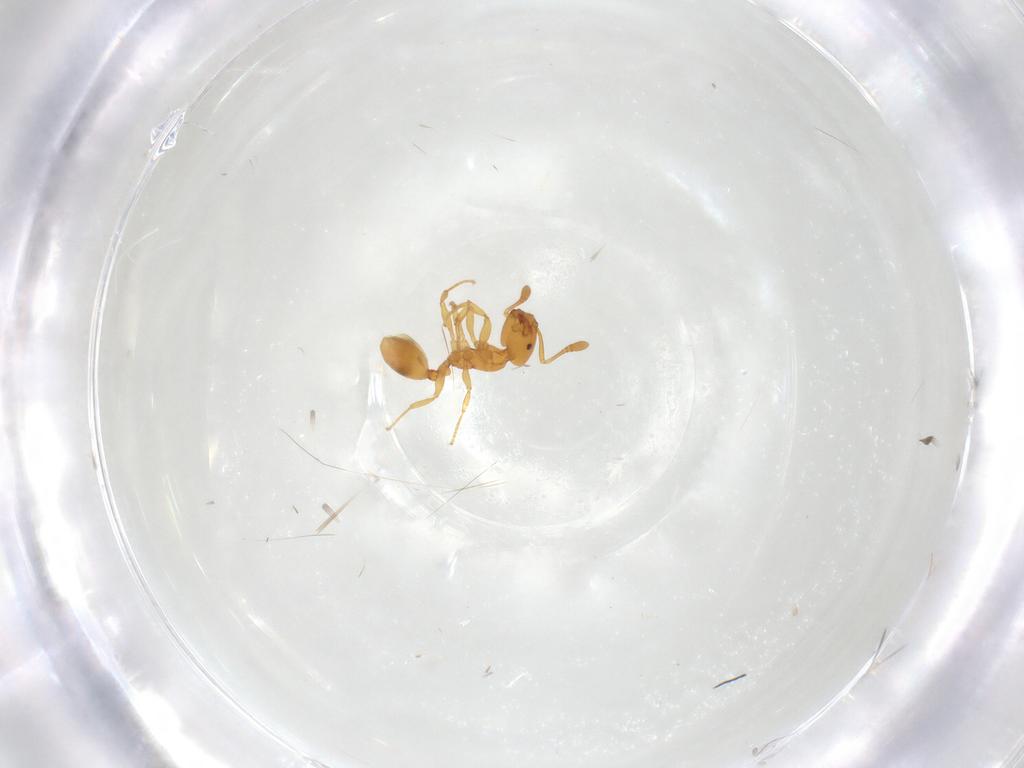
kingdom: Animalia
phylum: Arthropoda
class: Insecta
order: Hymenoptera
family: Formicidae
